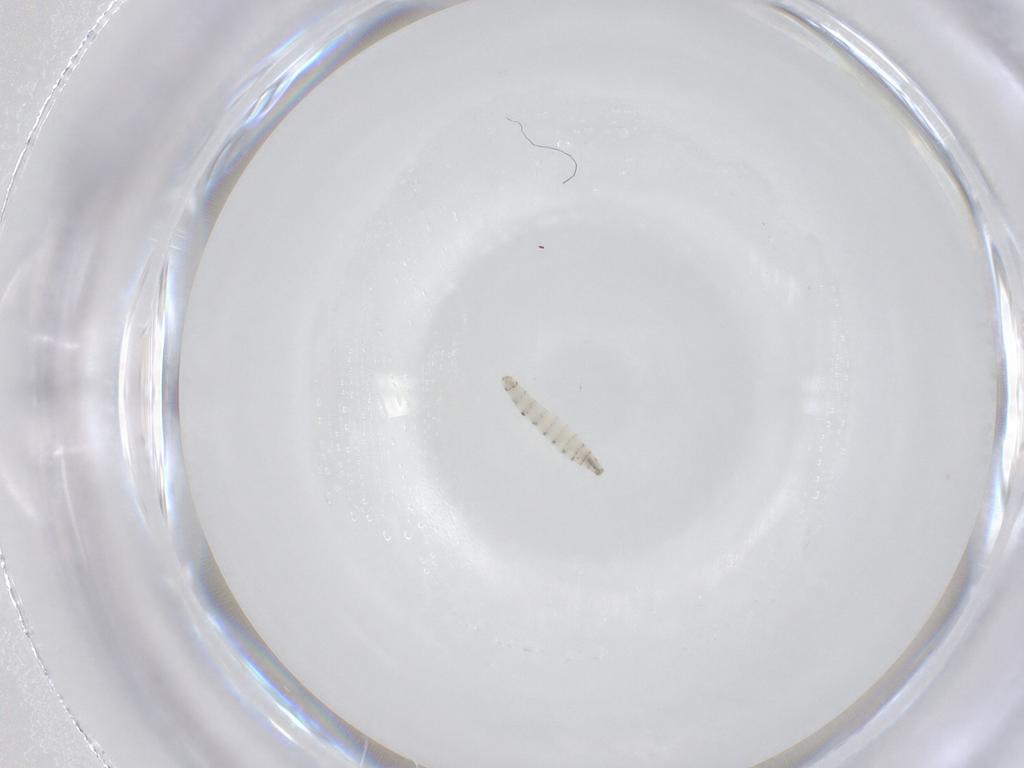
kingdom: Animalia
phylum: Arthropoda
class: Insecta
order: Diptera
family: Calliphoridae
